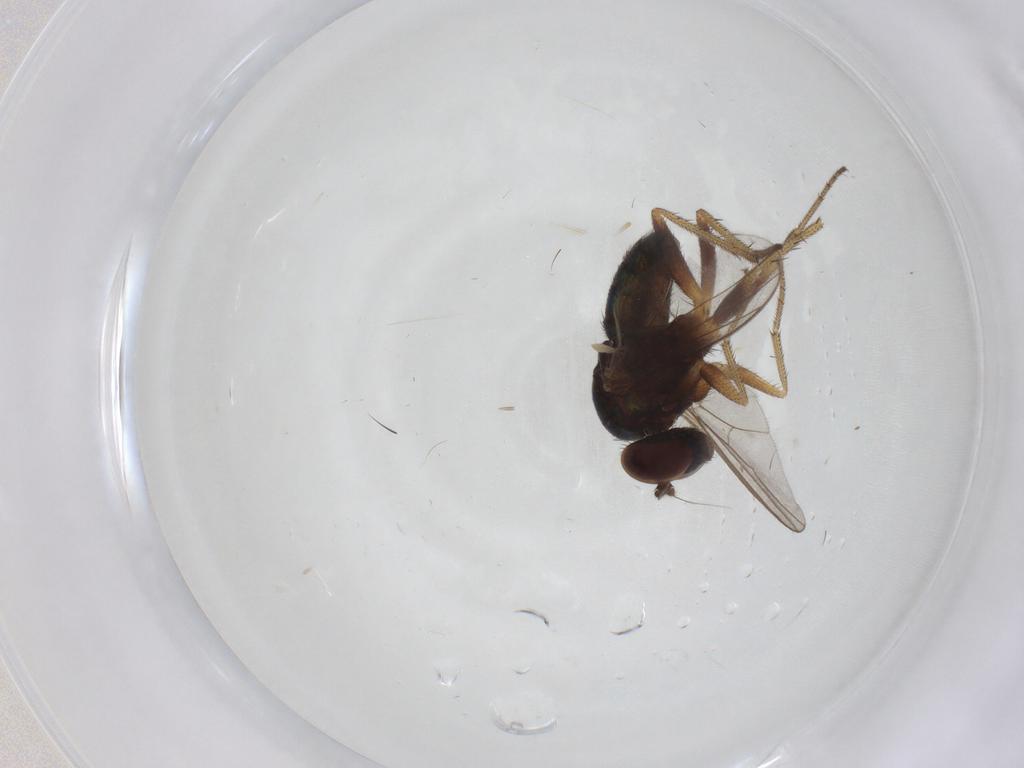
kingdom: Animalia
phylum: Arthropoda
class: Insecta
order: Diptera
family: Dolichopodidae
